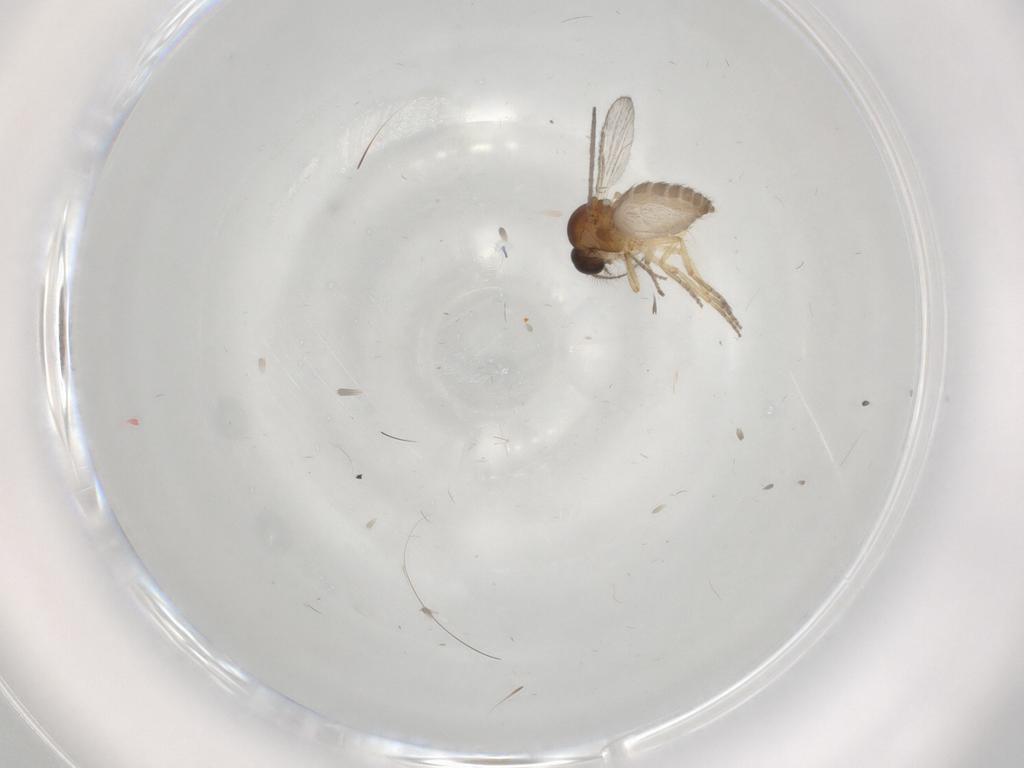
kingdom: Animalia
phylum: Arthropoda
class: Insecta
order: Diptera
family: Ceratopogonidae
